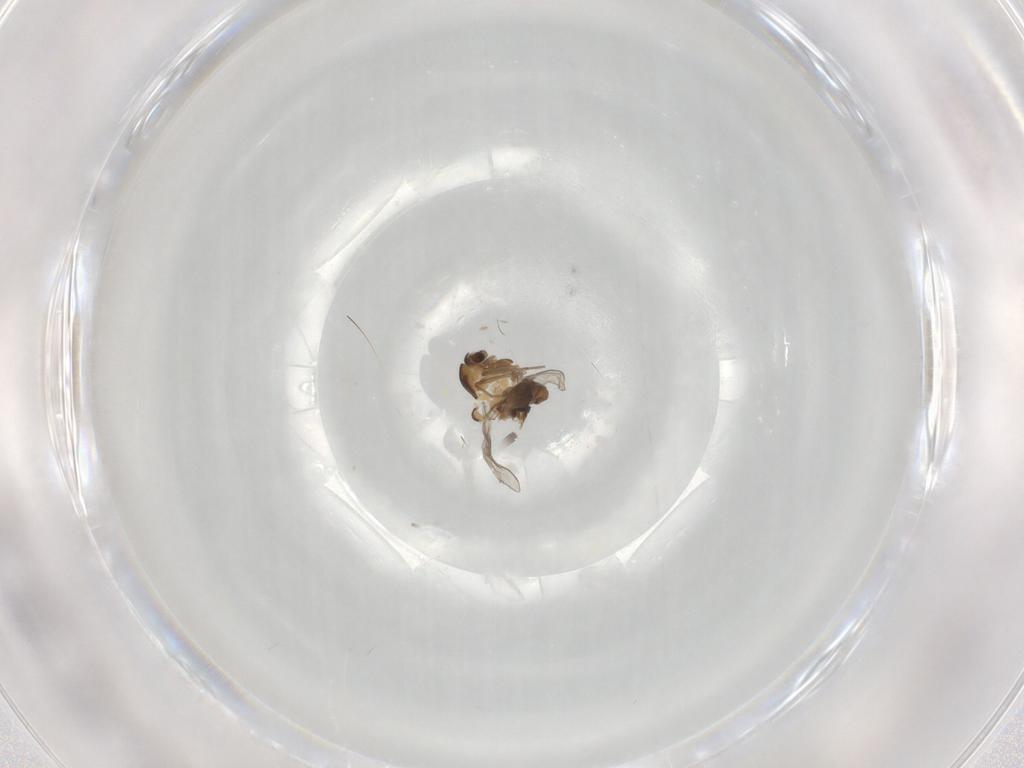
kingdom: Animalia
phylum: Arthropoda
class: Insecta
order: Diptera
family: Mycetophilidae
